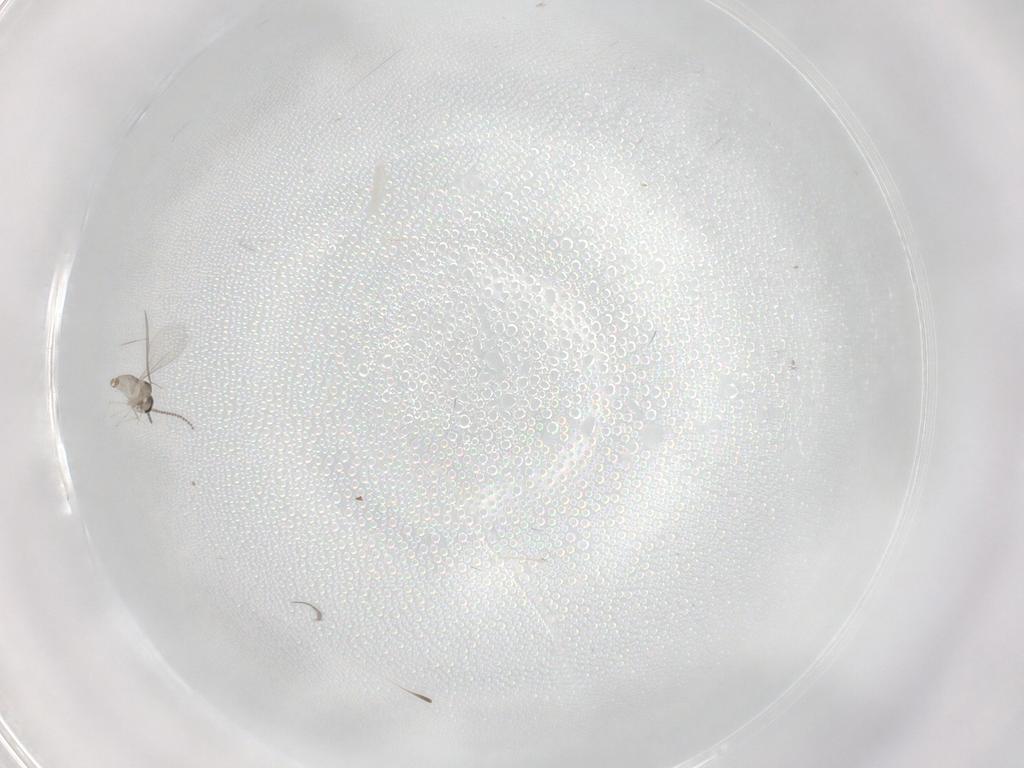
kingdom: Animalia
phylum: Arthropoda
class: Insecta
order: Diptera
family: Cecidomyiidae
